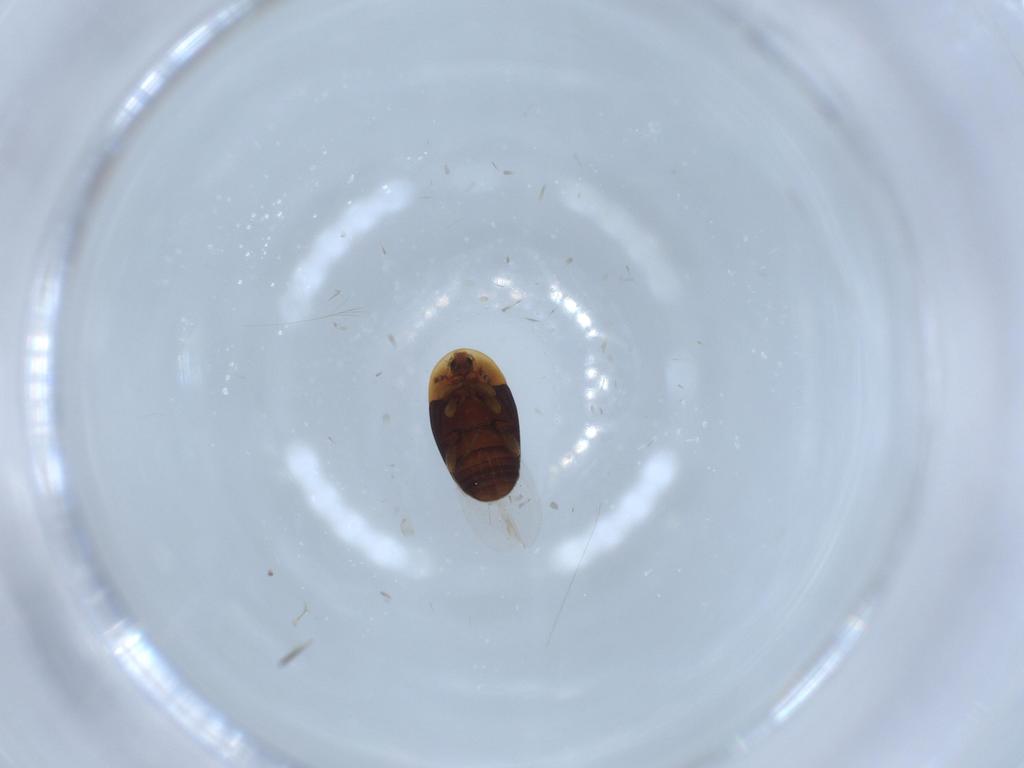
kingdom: Animalia
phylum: Arthropoda
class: Insecta
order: Coleoptera
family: Corylophidae
